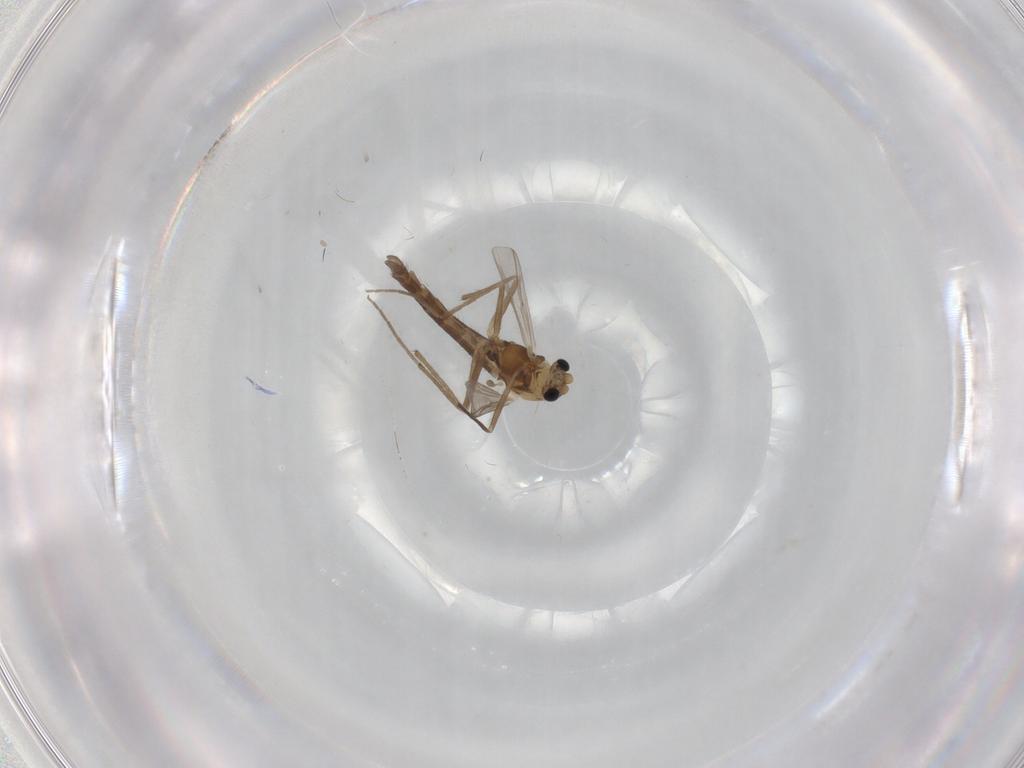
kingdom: Animalia
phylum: Arthropoda
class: Insecta
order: Diptera
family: Chironomidae
